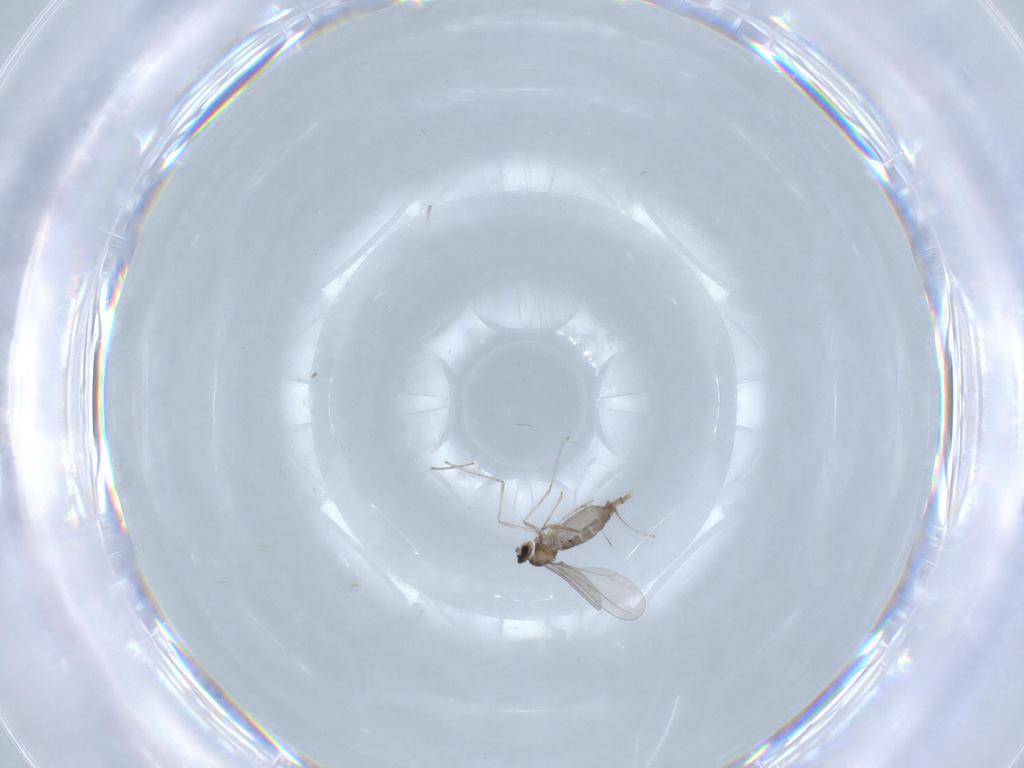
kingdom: Animalia
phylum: Arthropoda
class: Insecta
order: Diptera
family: Cecidomyiidae
